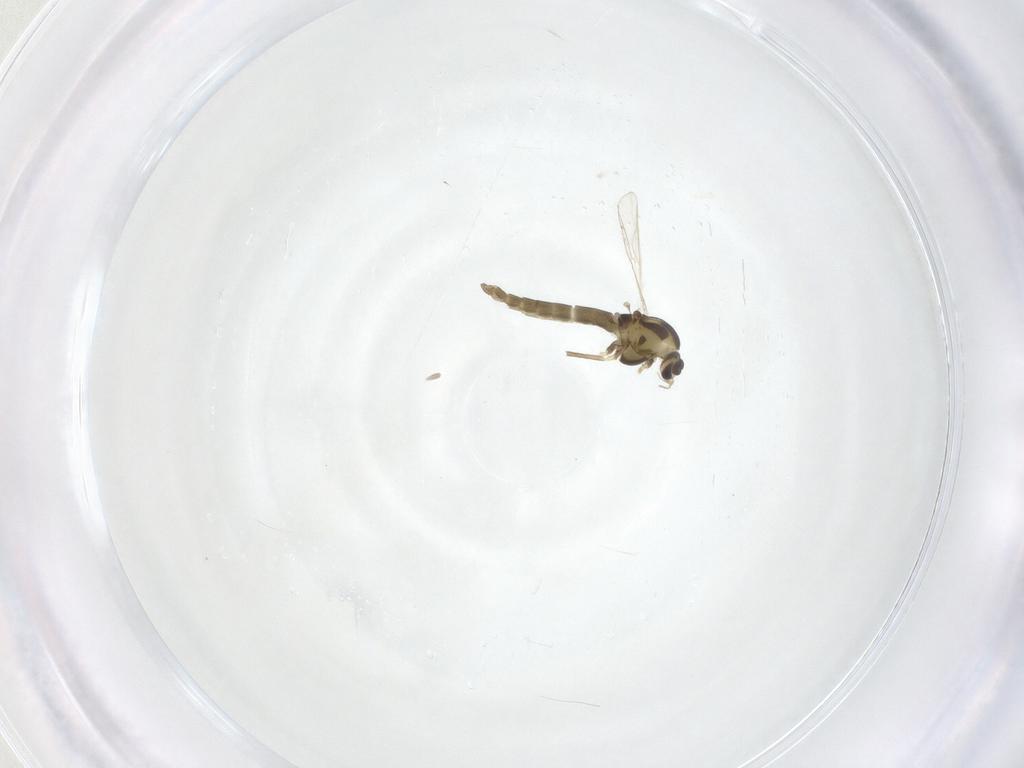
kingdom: Animalia
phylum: Arthropoda
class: Insecta
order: Diptera
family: Chironomidae
